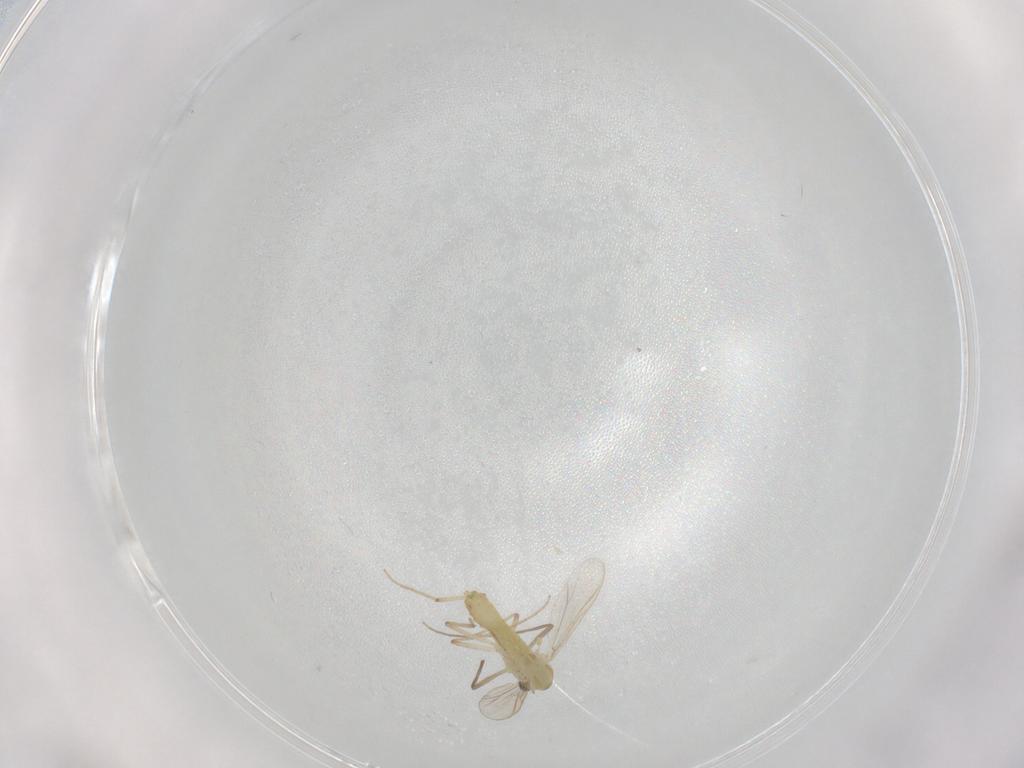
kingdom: Animalia
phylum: Arthropoda
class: Insecta
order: Diptera
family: Chironomidae
